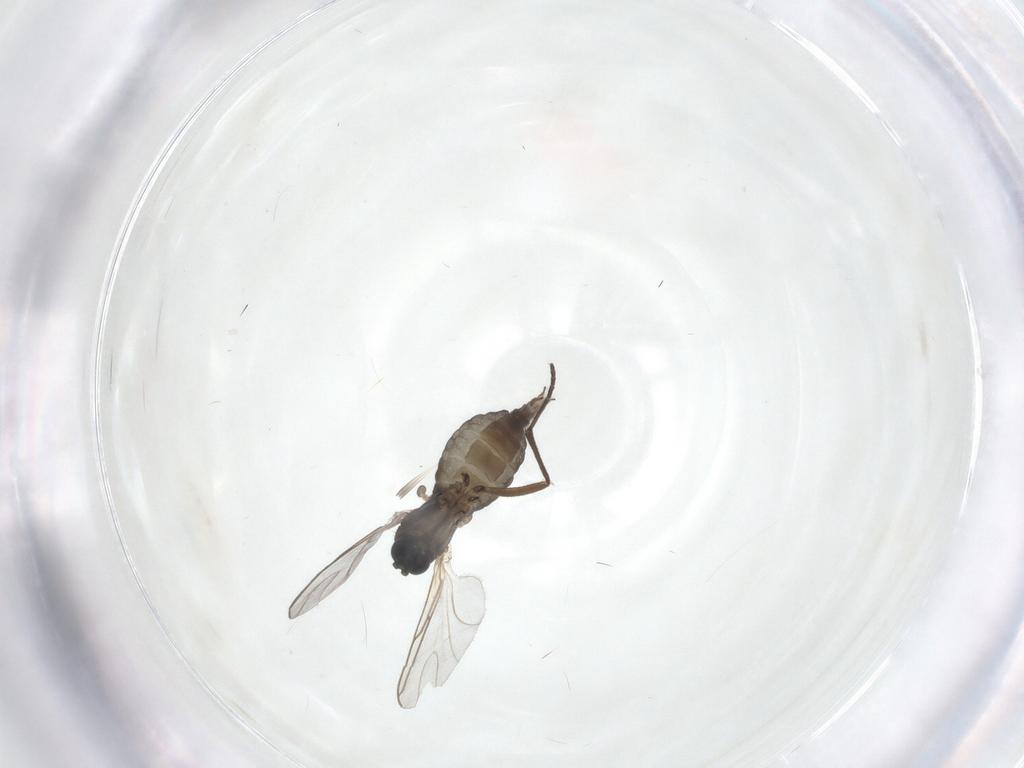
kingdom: Animalia
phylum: Arthropoda
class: Insecta
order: Diptera
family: Sciaridae
